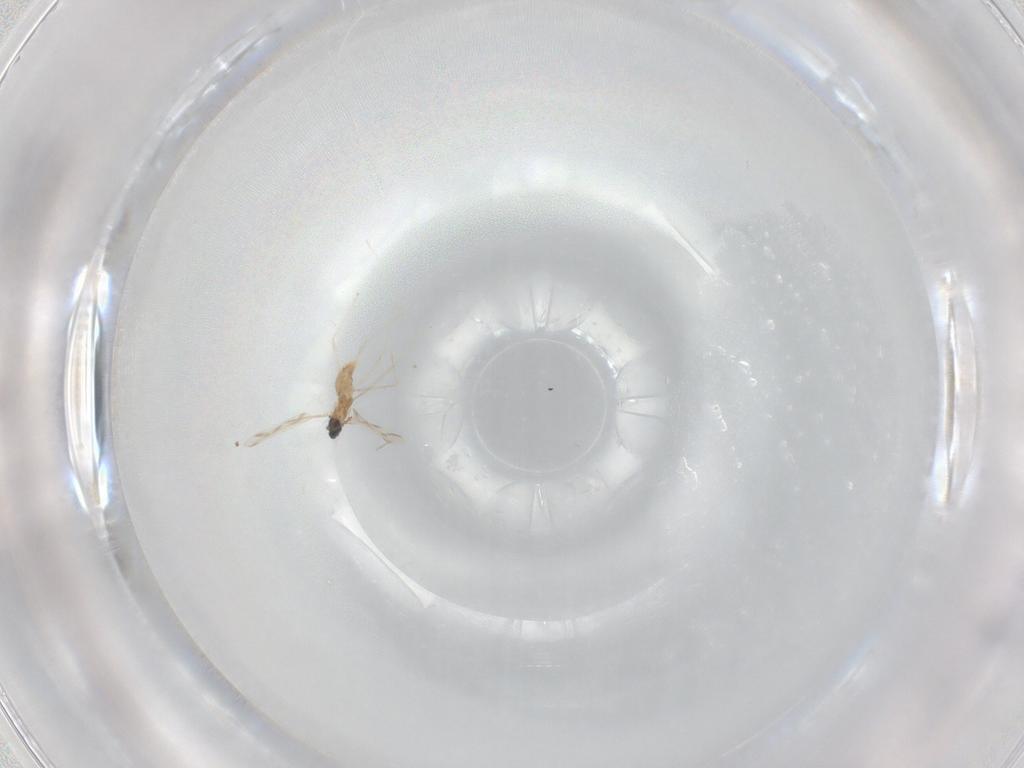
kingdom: Animalia
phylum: Arthropoda
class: Insecta
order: Diptera
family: Cecidomyiidae
